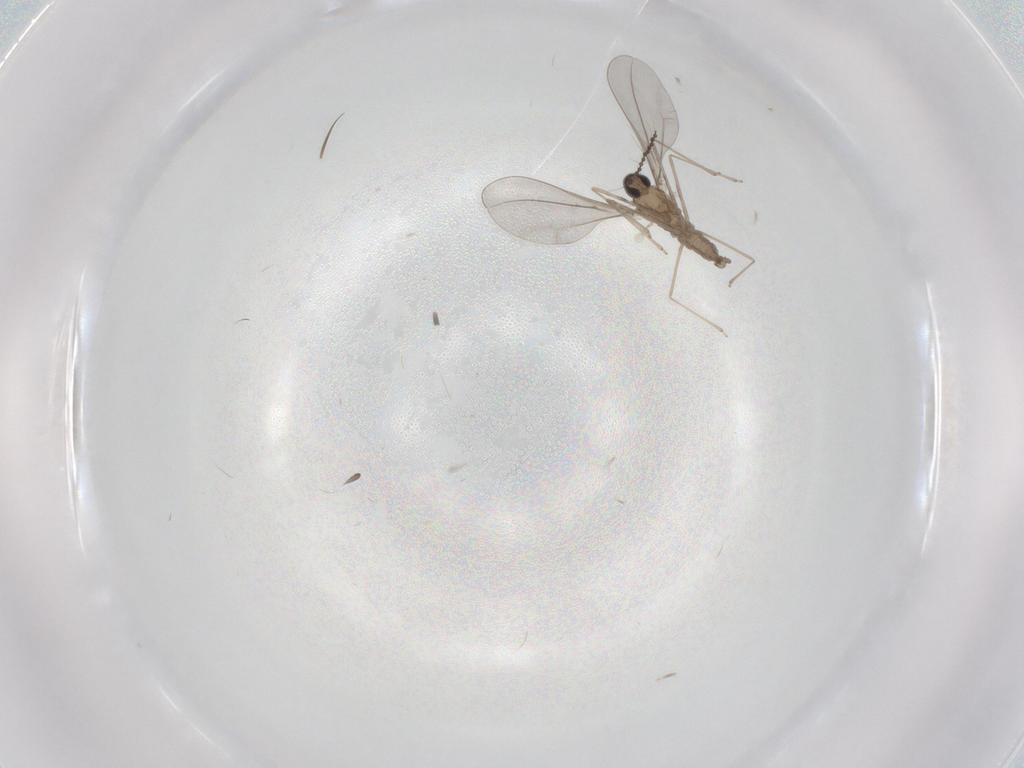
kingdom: Animalia
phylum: Arthropoda
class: Insecta
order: Diptera
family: Cecidomyiidae
